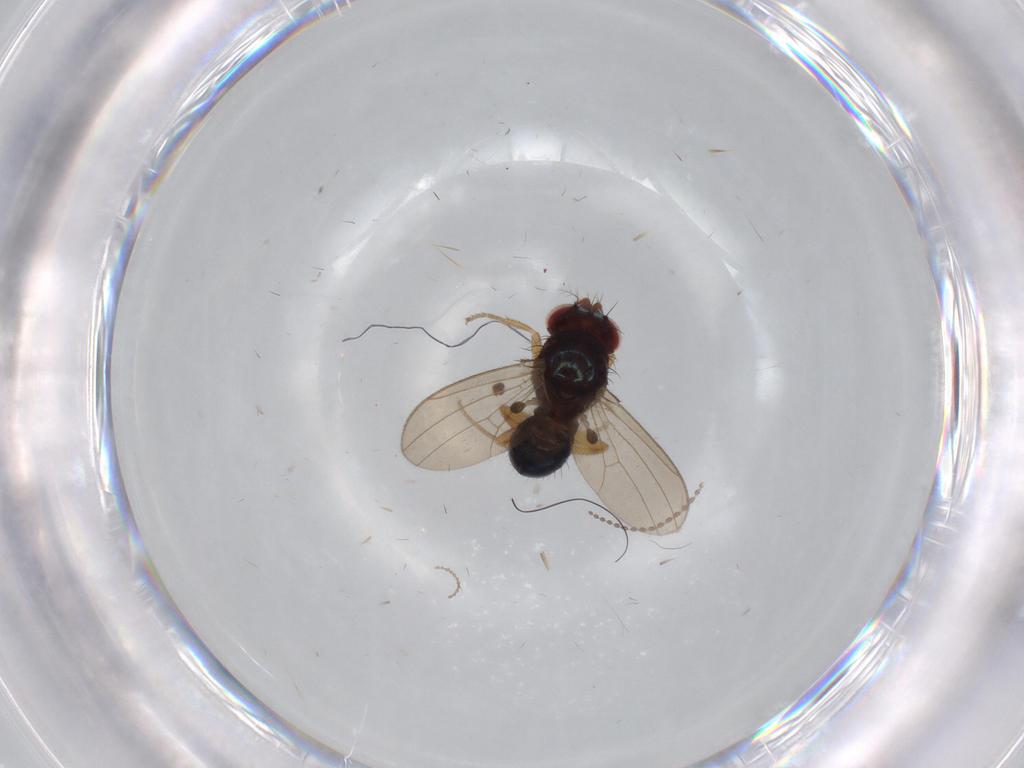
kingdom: Animalia
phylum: Arthropoda
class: Insecta
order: Diptera
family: Drosophilidae
